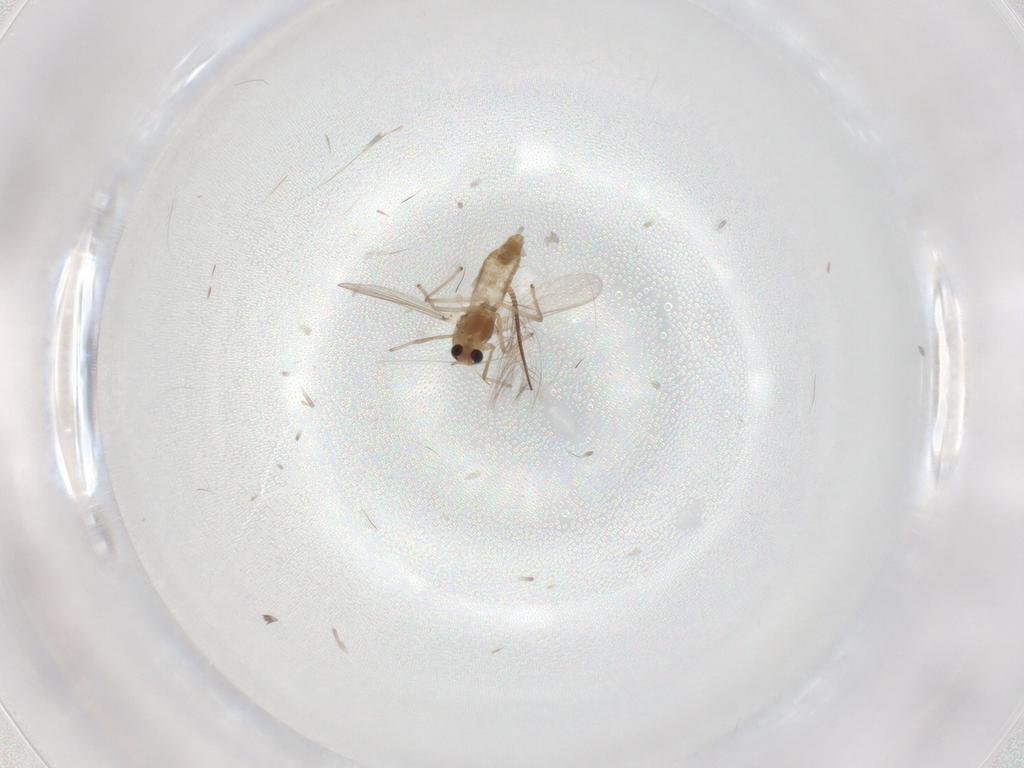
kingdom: Animalia
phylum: Arthropoda
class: Insecta
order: Diptera
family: Chironomidae
